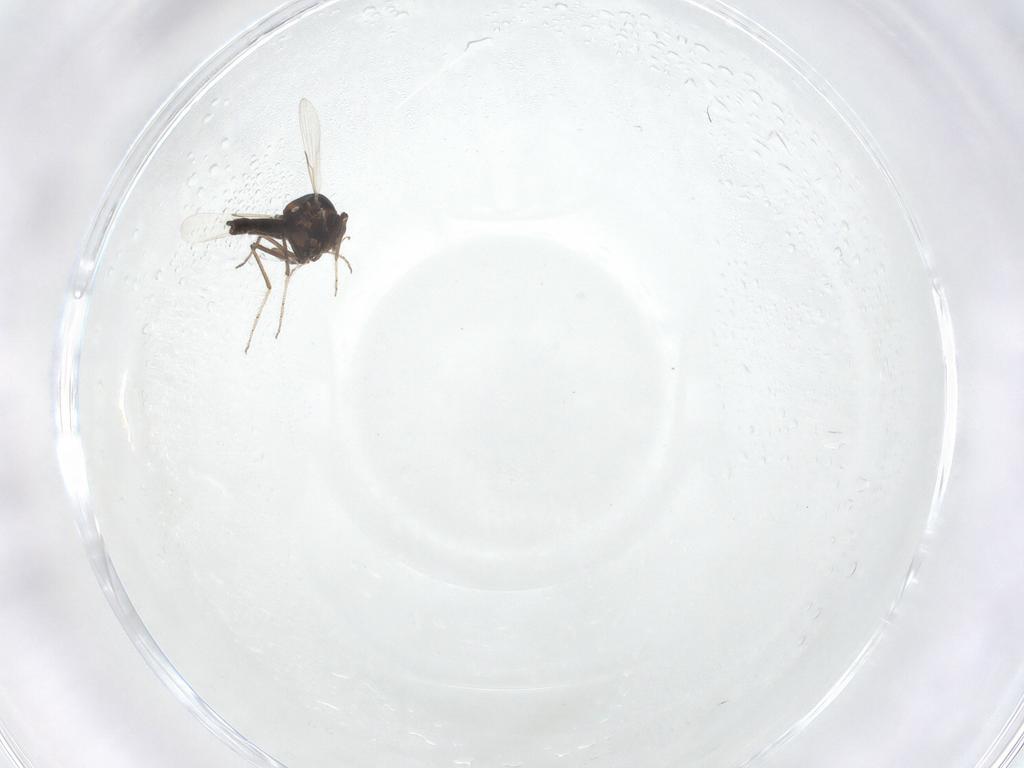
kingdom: Animalia
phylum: Arthropoda
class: Insecta
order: Diptera
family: Ceratopogonidae
